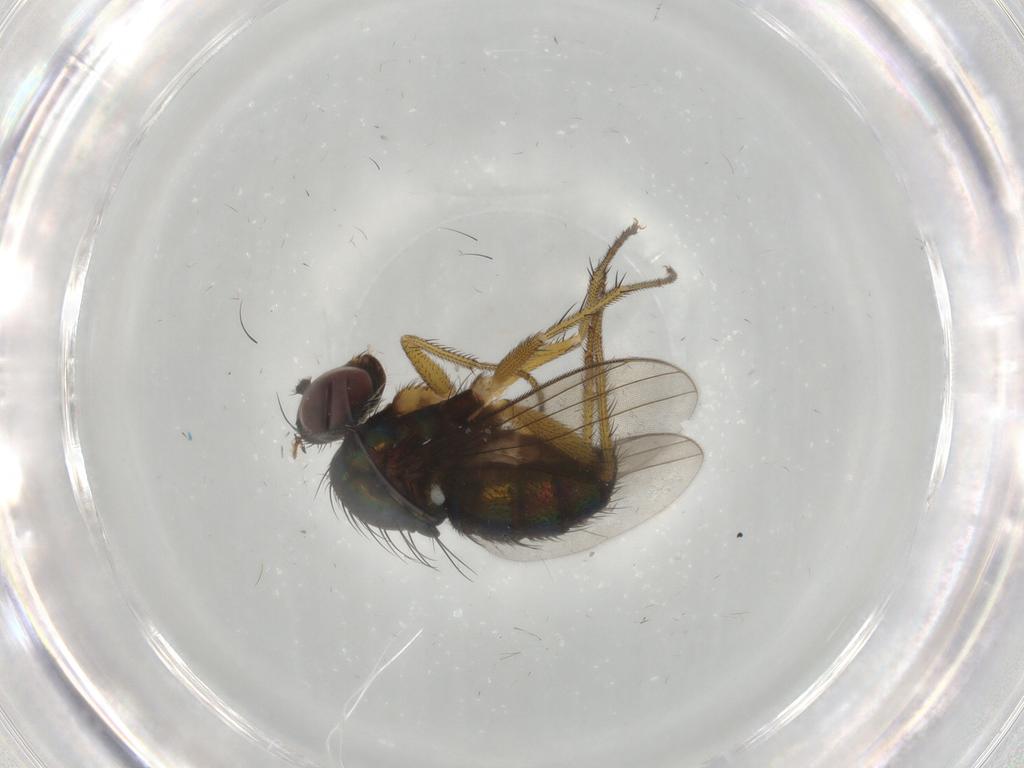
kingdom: Animalia
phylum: Arthropoda
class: Insecta
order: Diptera
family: Dolichopodidae
